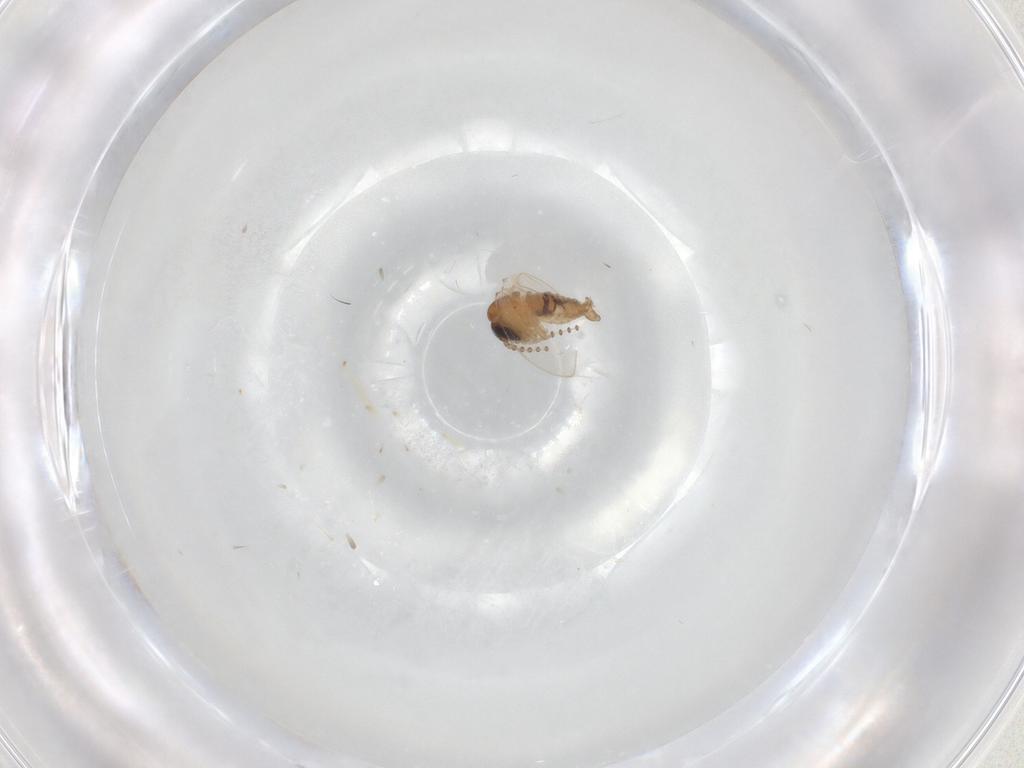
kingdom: Animalia
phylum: Arthropoda
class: Insecta
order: Diptera
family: Psychodidae
